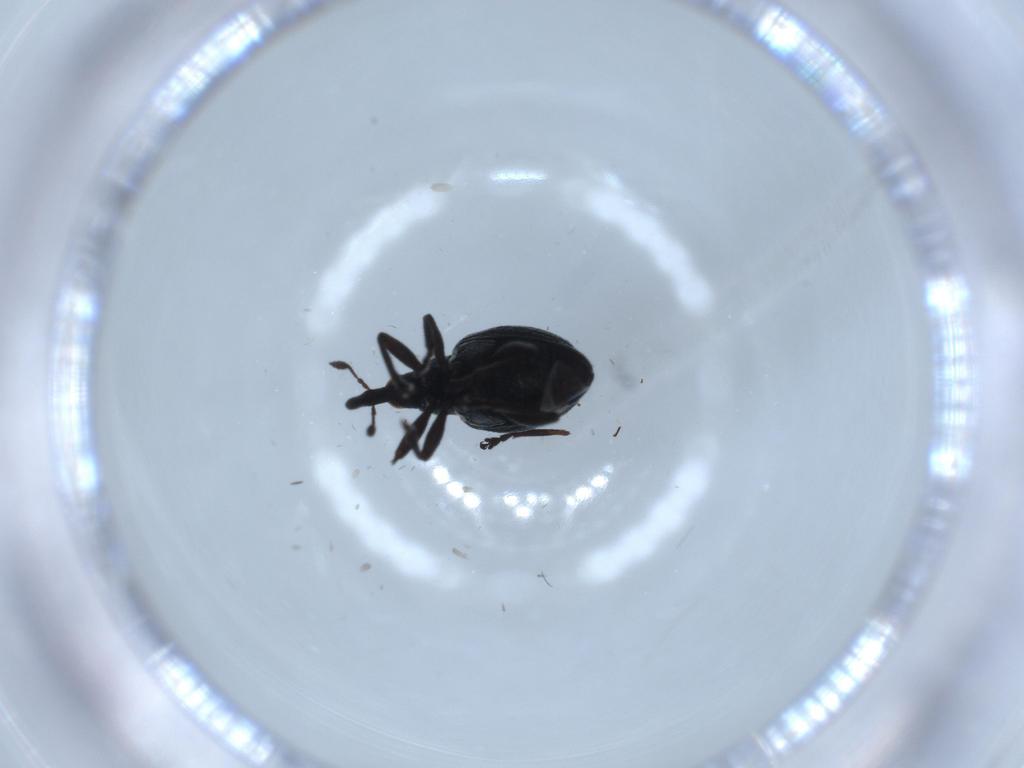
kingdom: Animalia
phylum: Arthropoda
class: Insecta
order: Coleoptera
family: Brentidae
